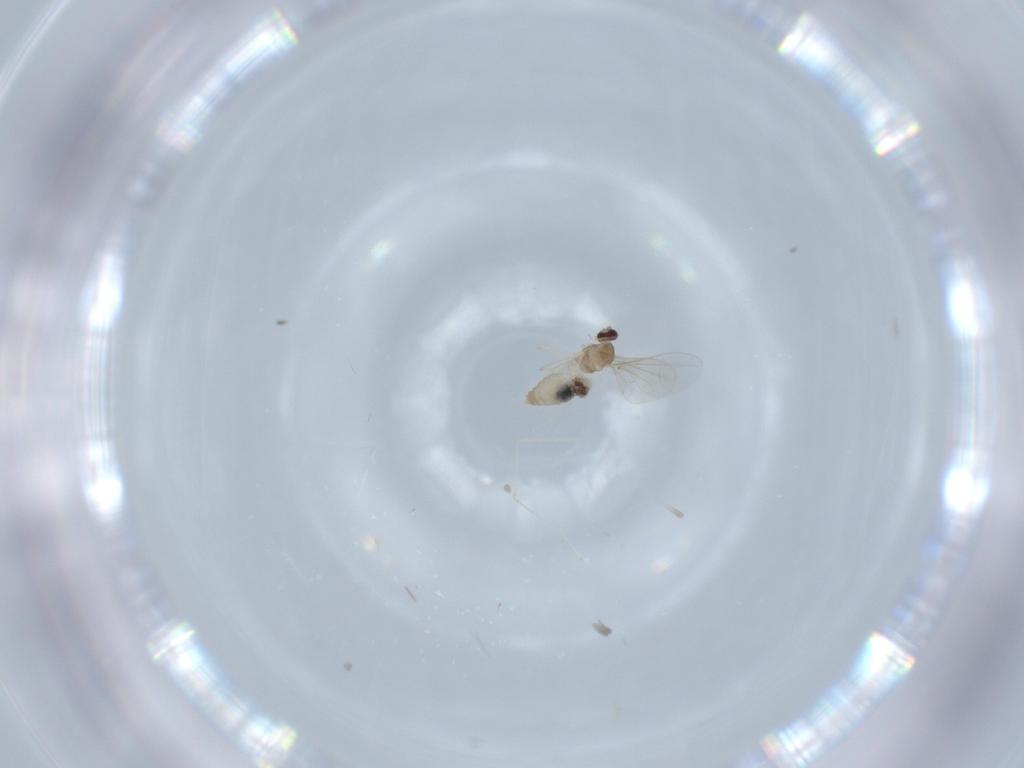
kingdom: Animalia
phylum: Arthropoda
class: Insecta
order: Diptera
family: Cecidomyiidae
